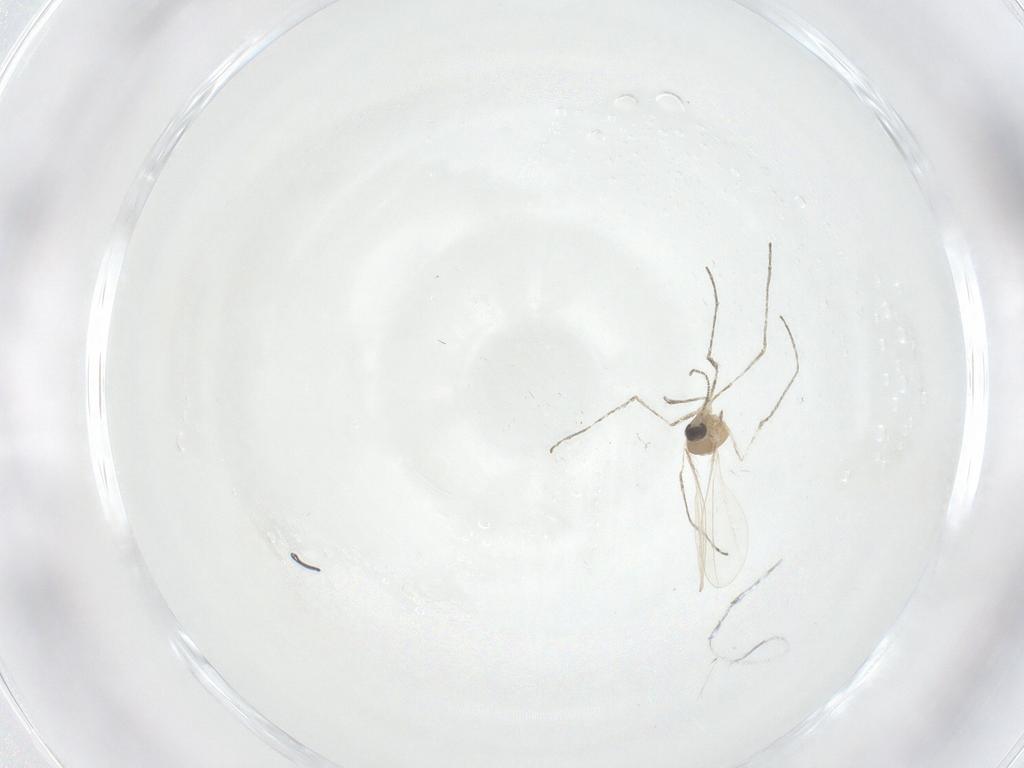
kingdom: Animalia
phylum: Arthropoda
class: Insecta
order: Diptera
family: Cecidomyiidae
